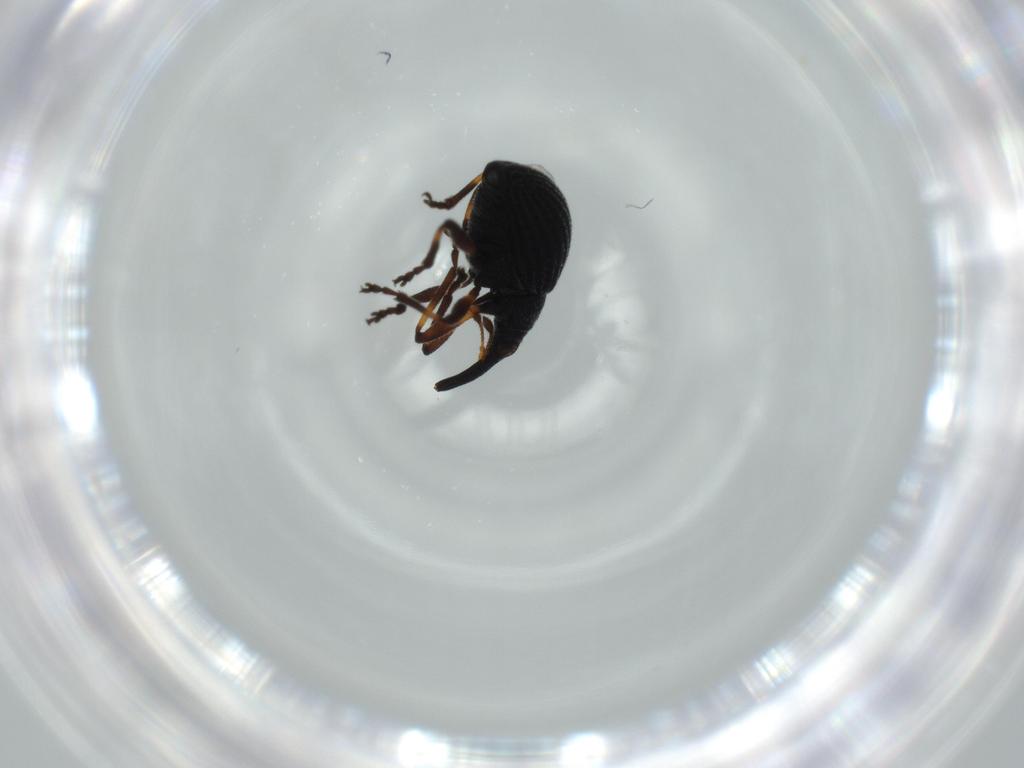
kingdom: Animalia
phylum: Arthropoda
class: Insecta
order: Coleoptera
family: Brentidae
